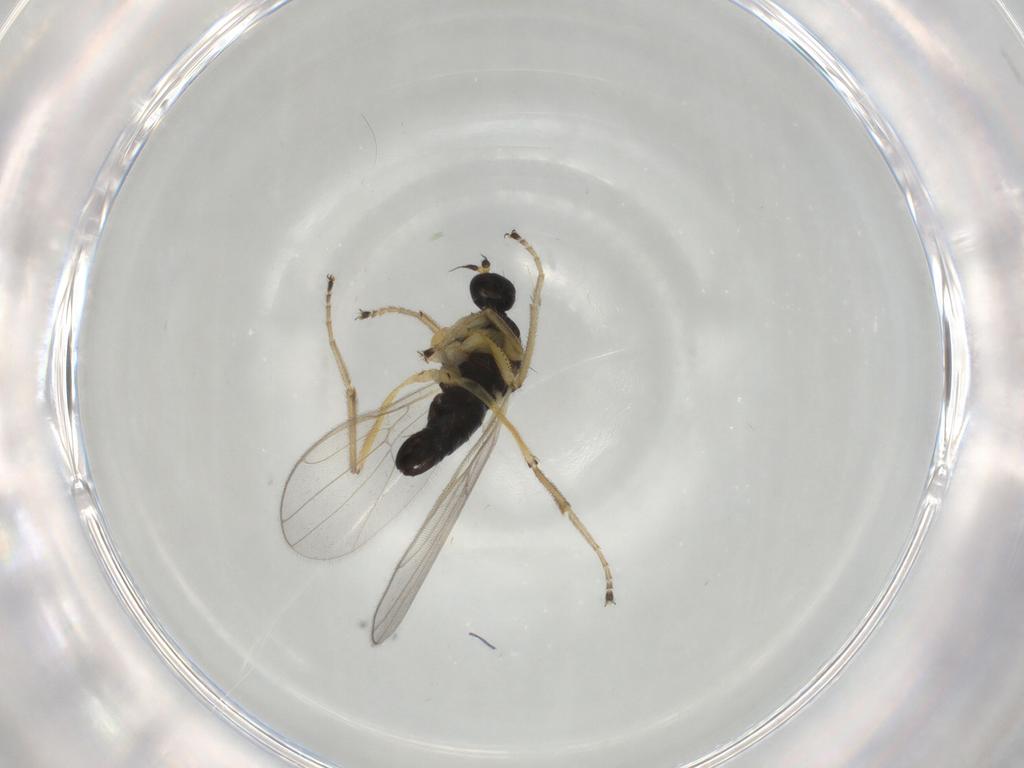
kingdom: Animalia
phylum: Arthropoda
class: Insecta
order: Diptera
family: Hybotidae
